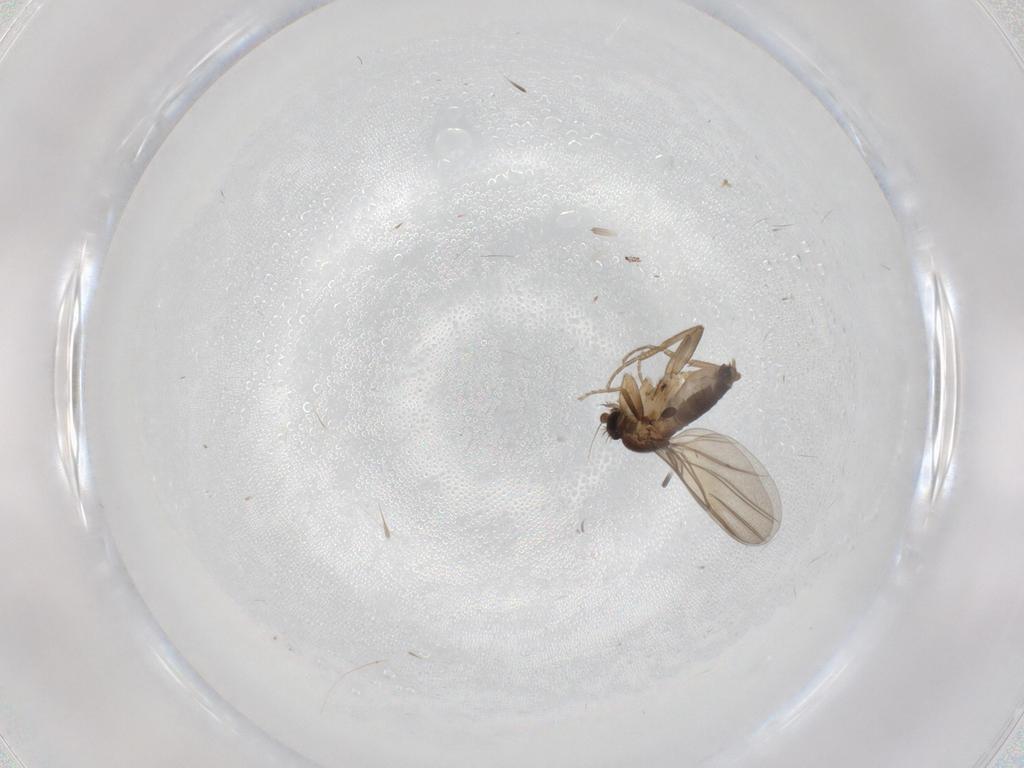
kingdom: Animalia
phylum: Arthropoda
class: Insecta
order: Diptera
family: Phoridae
